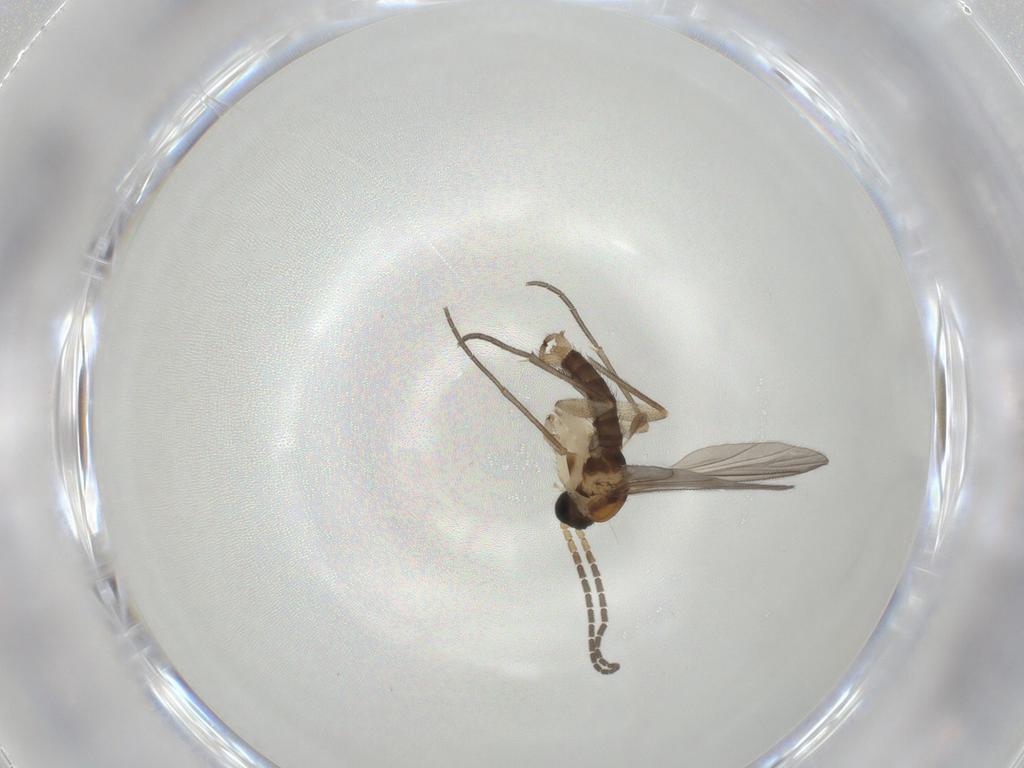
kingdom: Animalia
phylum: Arthropoda
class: Insecta
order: Diptera
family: Sciaridae
